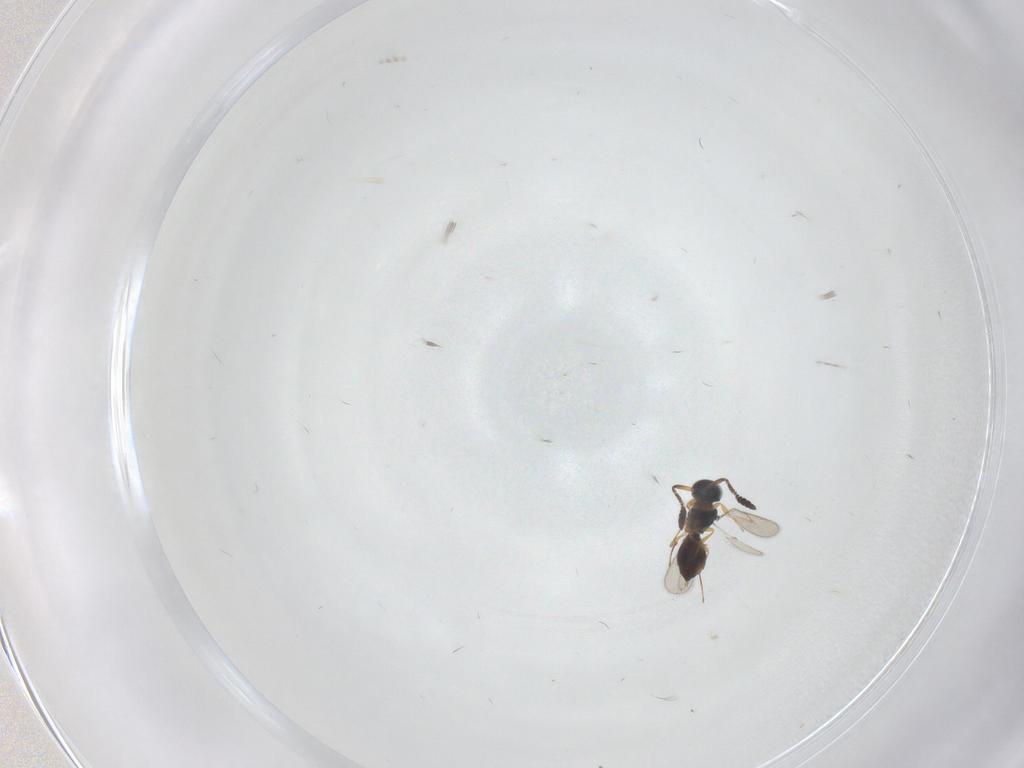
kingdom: Animalia
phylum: Arthropoda
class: Insecta
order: Hymenoptera
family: Scelionidae
